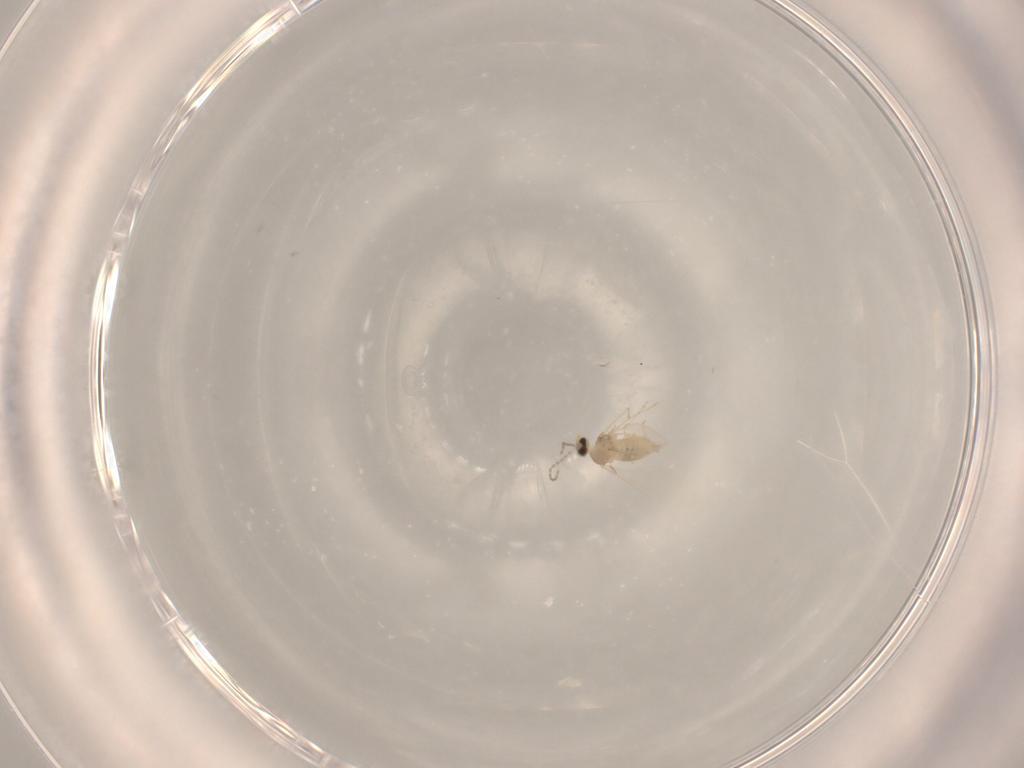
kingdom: Animalia
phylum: Arthropoda
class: Insecta
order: Diptera
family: Cecidomyiidae
